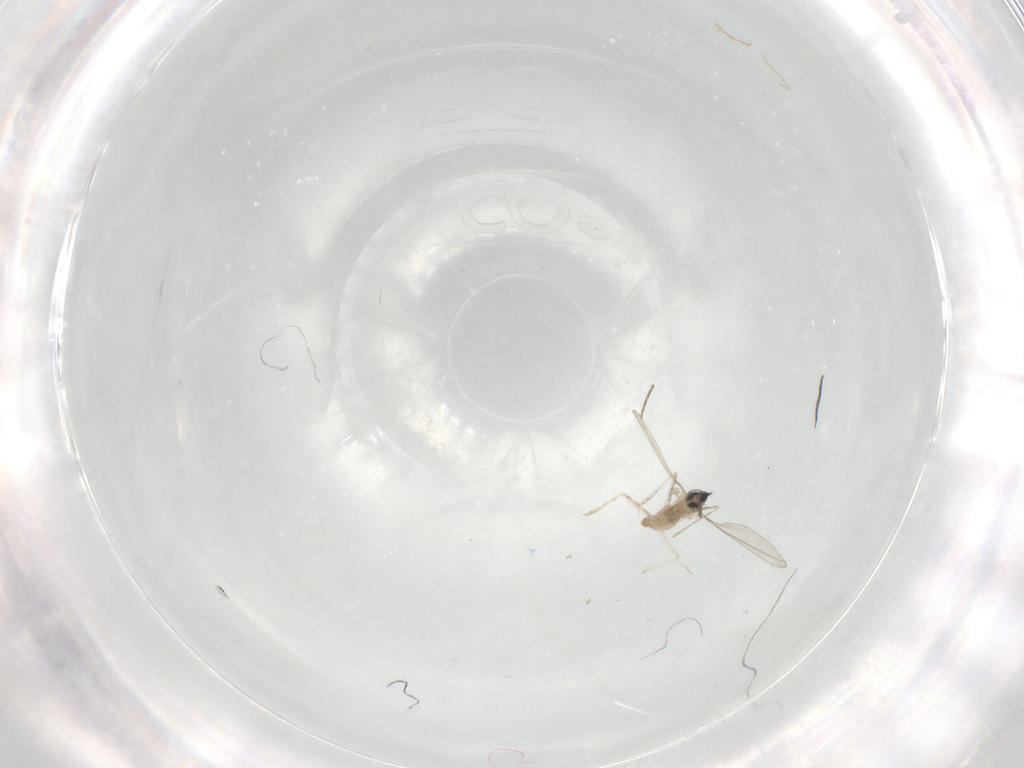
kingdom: Animalia
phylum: Arthropoda
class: Insecta
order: Diptera
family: Cecidomyiidae
